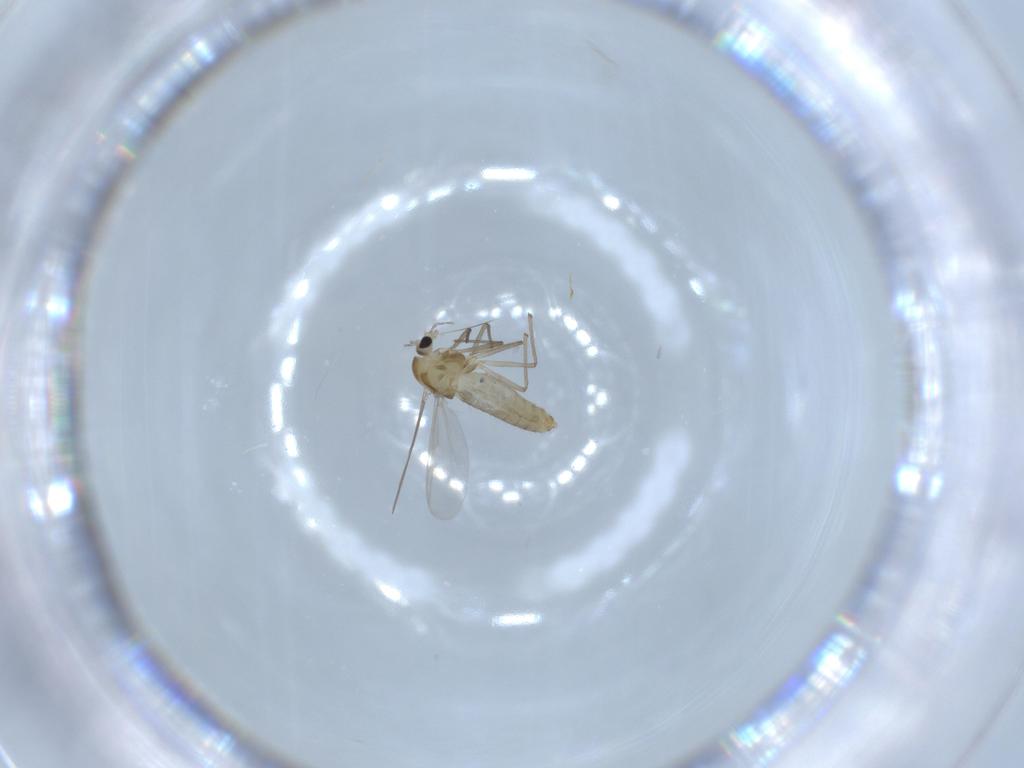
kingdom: Animalia
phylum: Arthropoda
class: Insecta
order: Diptera
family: Chironomidae
